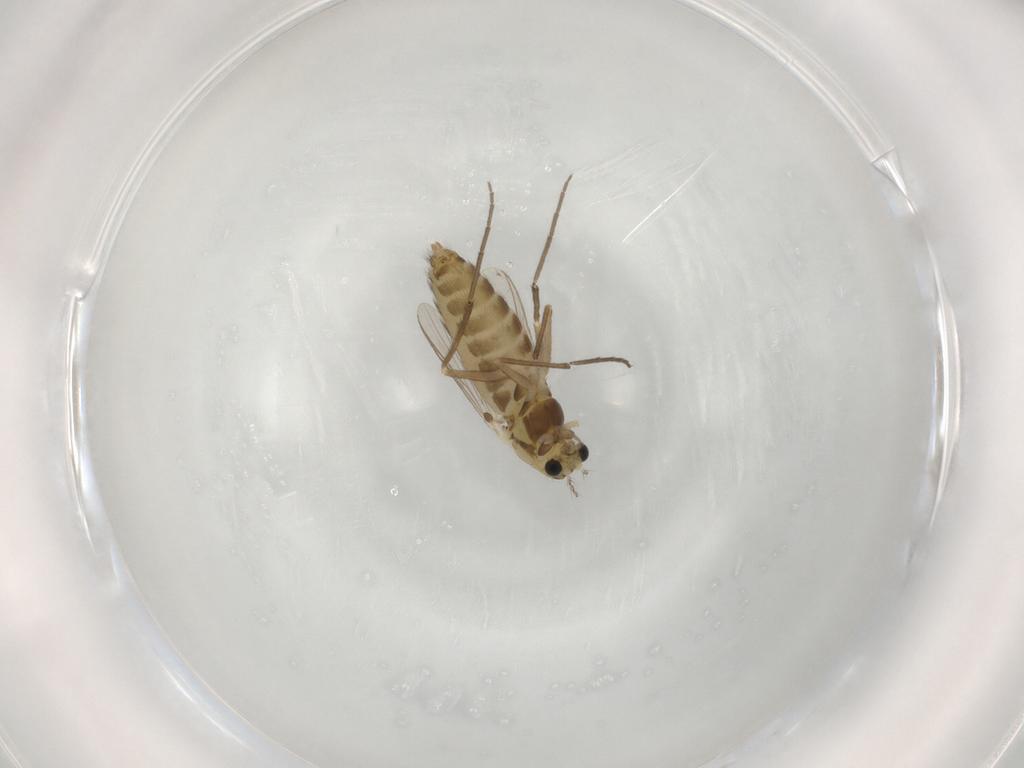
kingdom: Animalia
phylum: Arthropoda
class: Insecta
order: Diptera
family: Chironomidae
